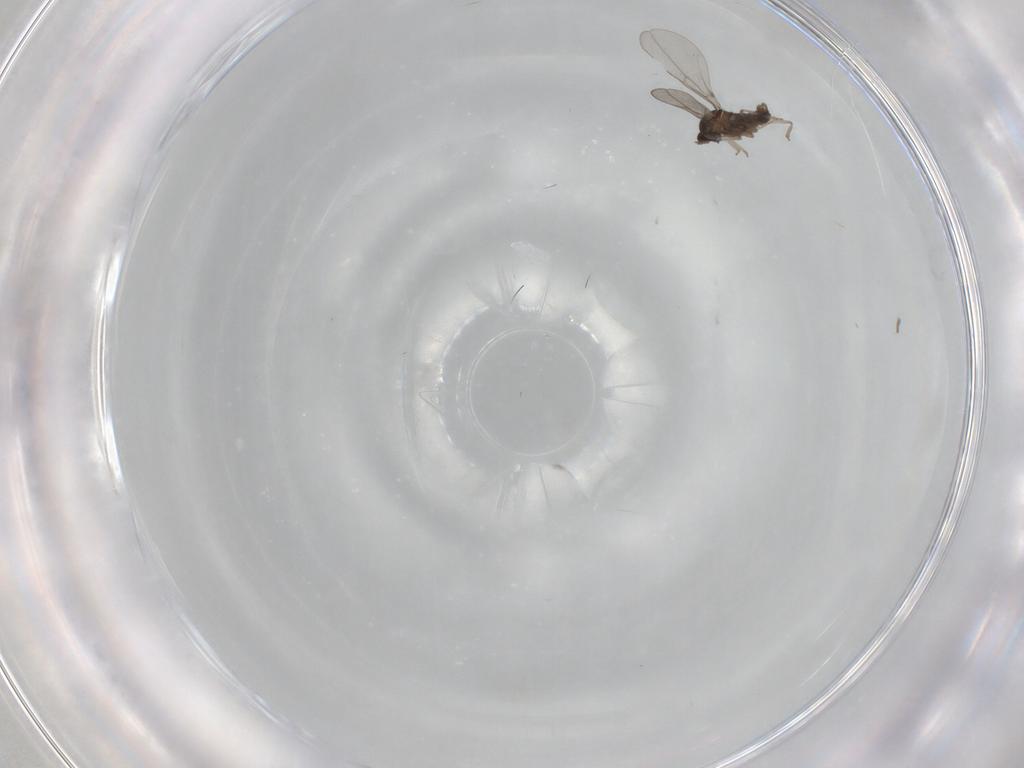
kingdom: Animalia
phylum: Arthropoda
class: Insecta
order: Diptera
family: Cecidomyiidae
